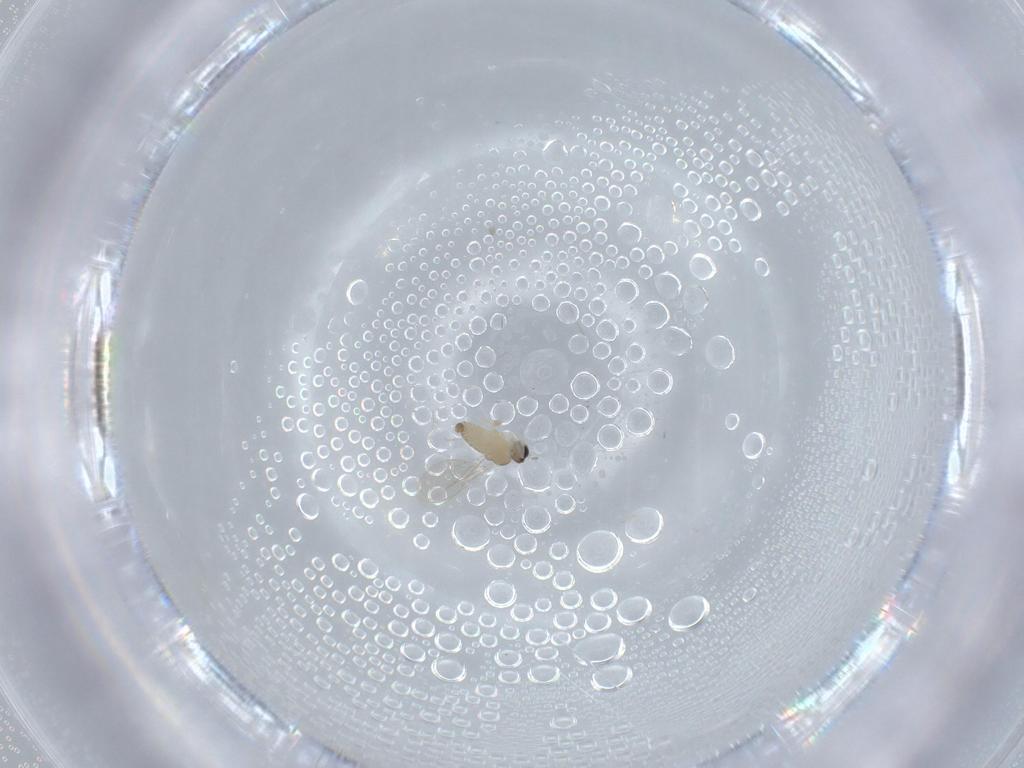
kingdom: Animalia
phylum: Arthropoda
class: Insecta
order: Diptera
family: Cecidomyiidae
